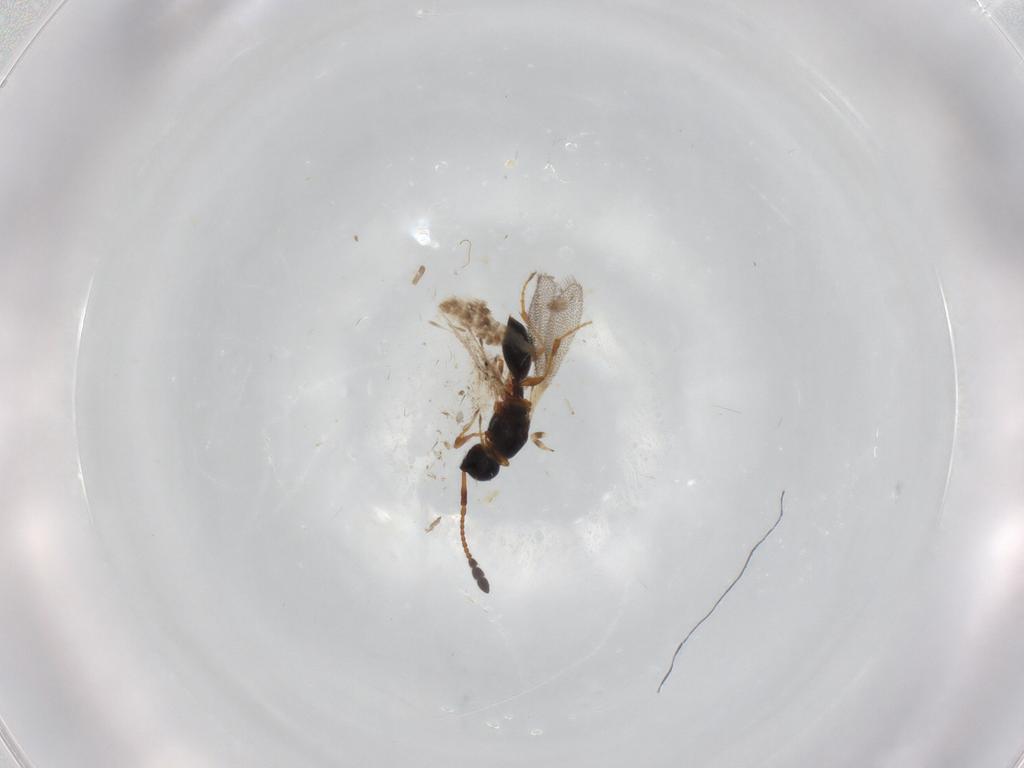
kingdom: Animalia
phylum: Arthropoda
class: Insecta
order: Hymenoptera
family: Diapriidae
